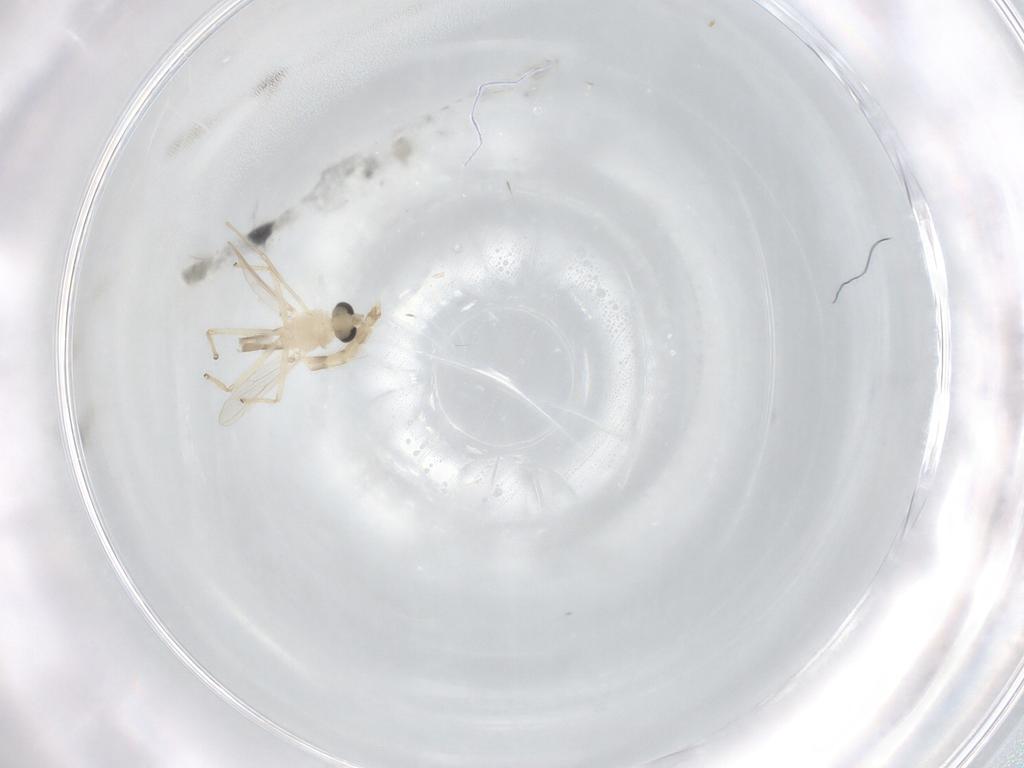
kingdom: Animalia
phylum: Arthropoda
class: Insecta
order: Diptera
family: Chironomidae
